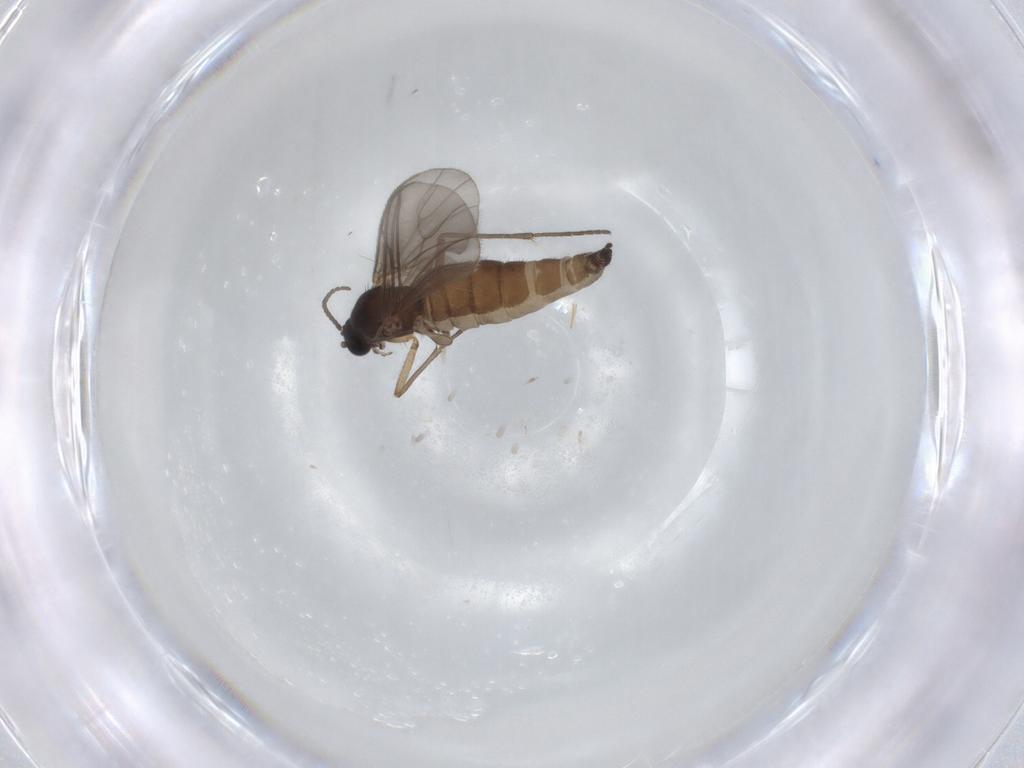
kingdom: Animalia
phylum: Arthropoda
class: Insecta
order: Diptera
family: Sciaridae
